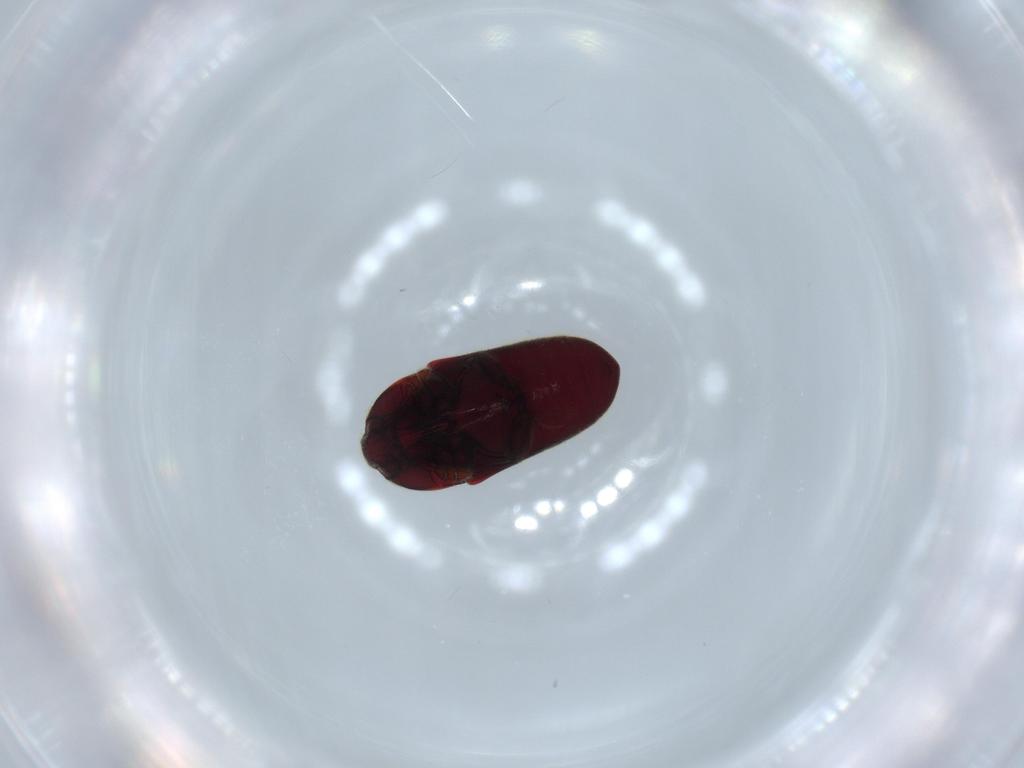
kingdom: Animalia
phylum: Arthropoda
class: Insecta
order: Coleoptera
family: Throscidae
